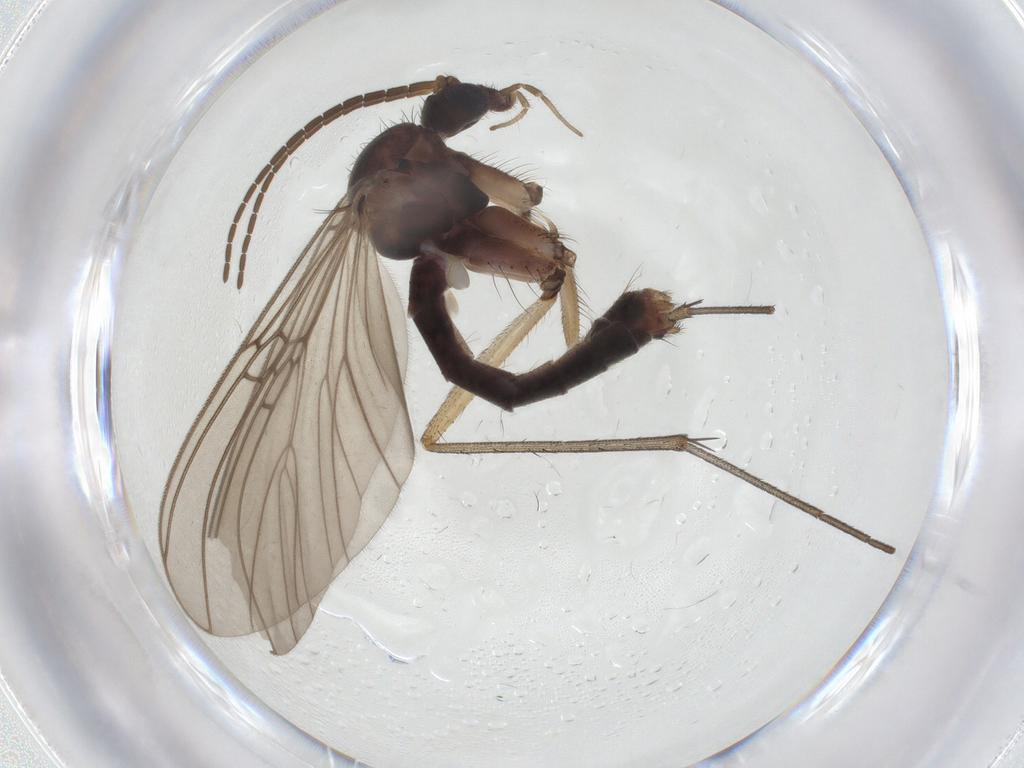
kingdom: Animalia
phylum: Arthropoda
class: Insecta
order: Diptera
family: Mycetophilidae
